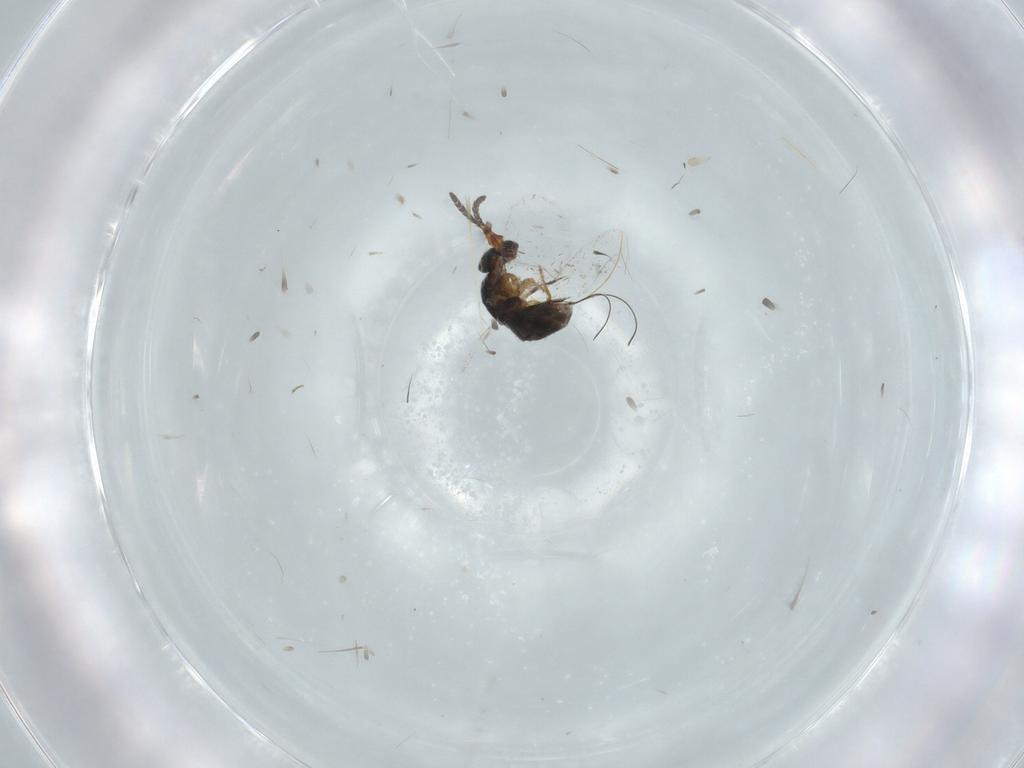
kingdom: Animalia
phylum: Arthropoda
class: Insecta
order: Hymenoptera
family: Agaonidae
